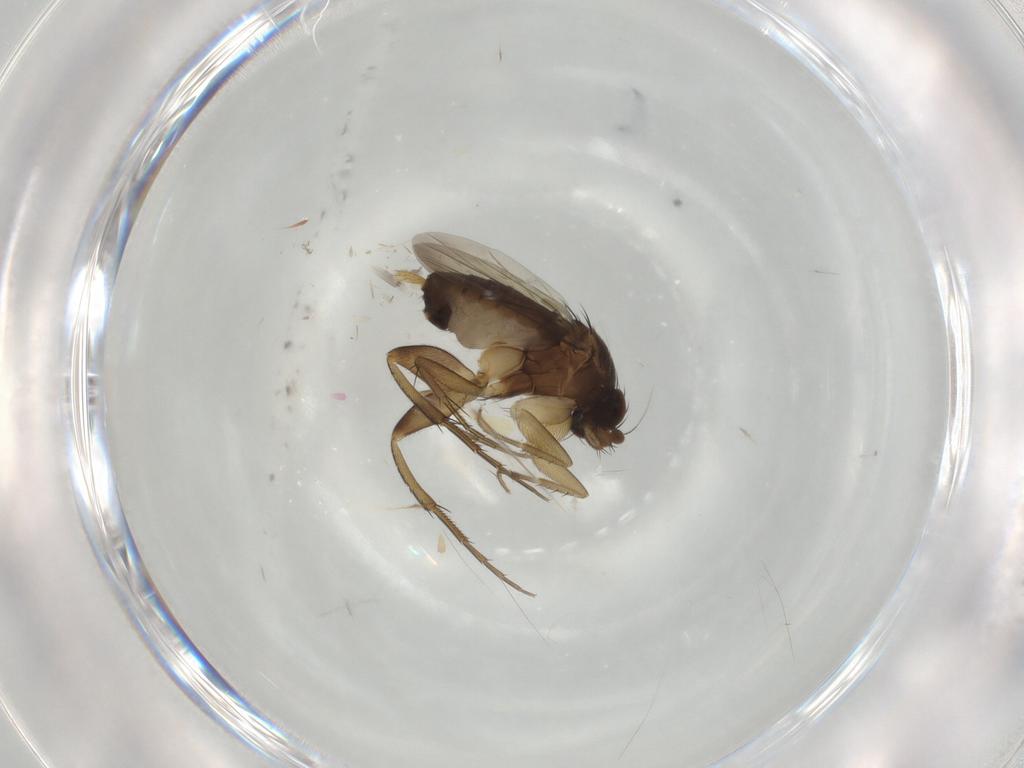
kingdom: Animalia
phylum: Arthropoda
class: Insecta
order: Diptera
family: Phoridae
